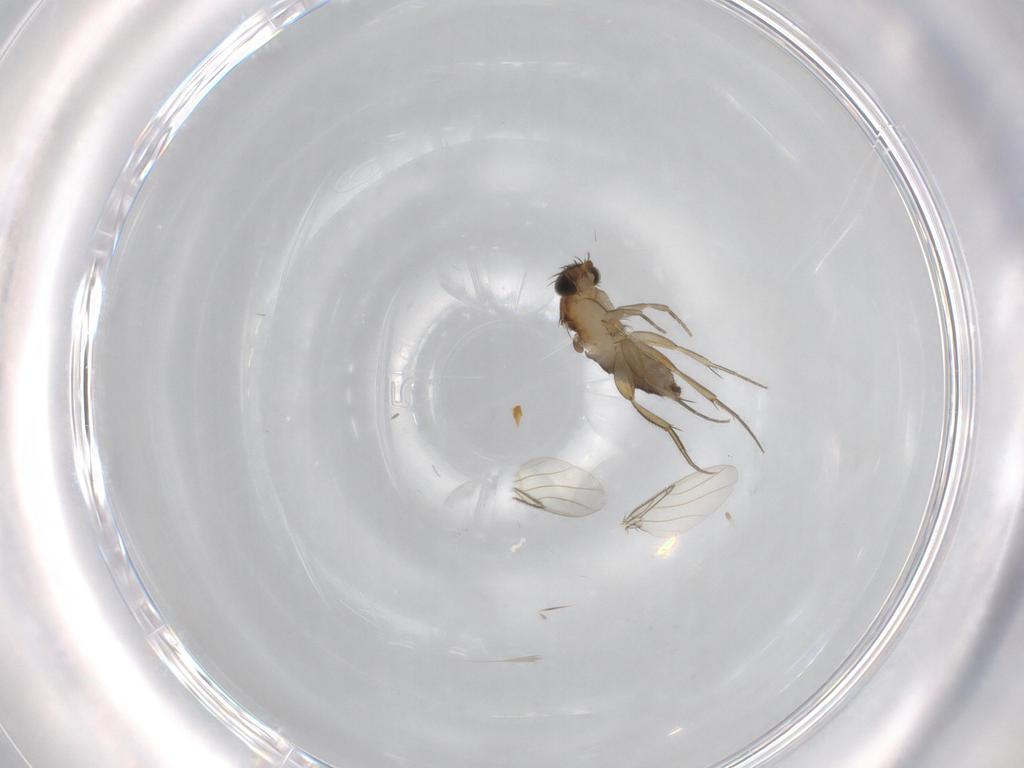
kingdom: Animalia
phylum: Arthropoda
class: Insecta
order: Diptera
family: Phoridae
